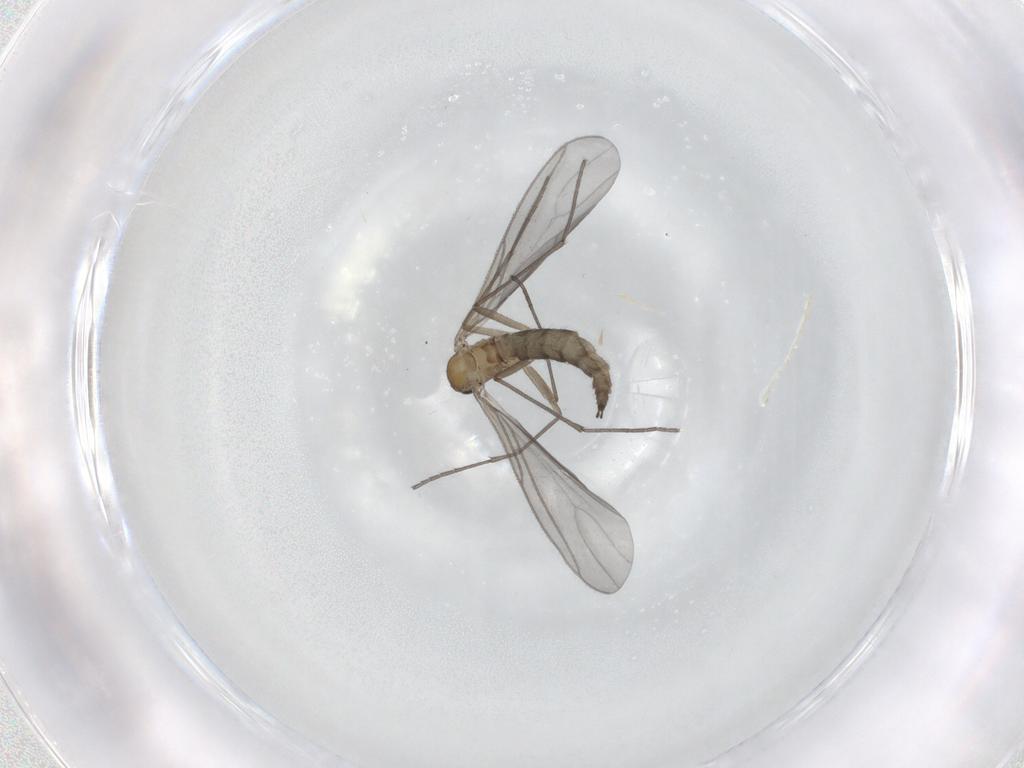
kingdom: Animalia
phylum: Arthropoda
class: Insecta
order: Diptera
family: Sciaridae
